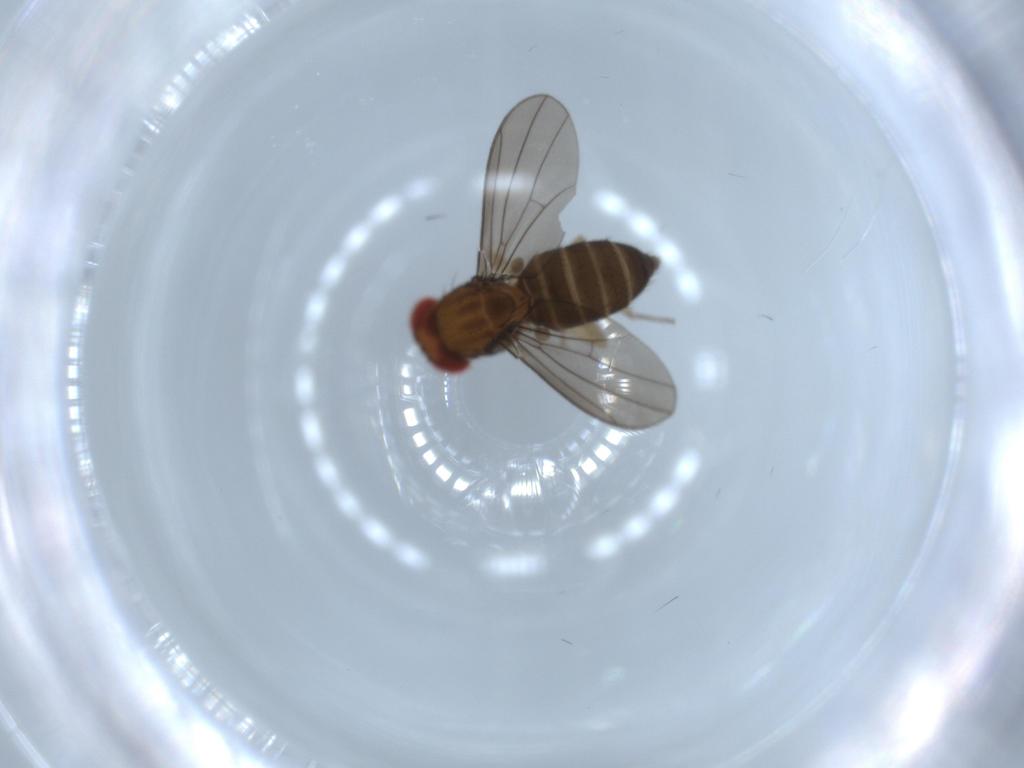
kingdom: Animalia
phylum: Arthropoda
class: Insecta
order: Diptera
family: Drosophilidae
